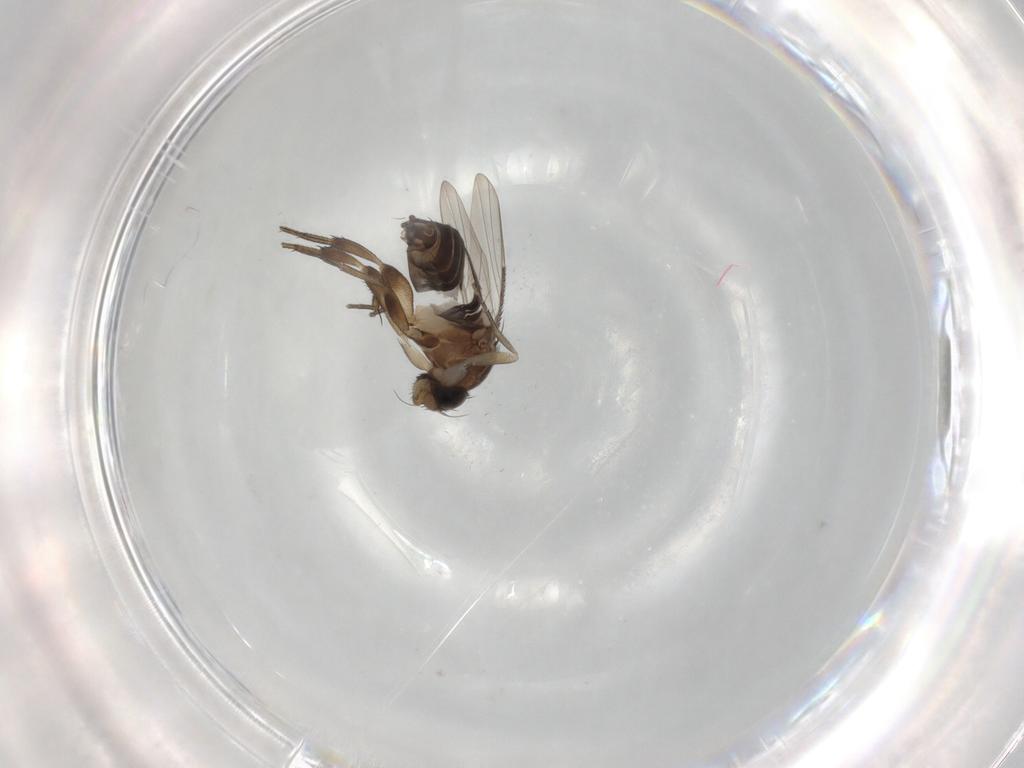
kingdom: Animalia
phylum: Arthropoda
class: Insecta
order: Diptera
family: Phoridae
